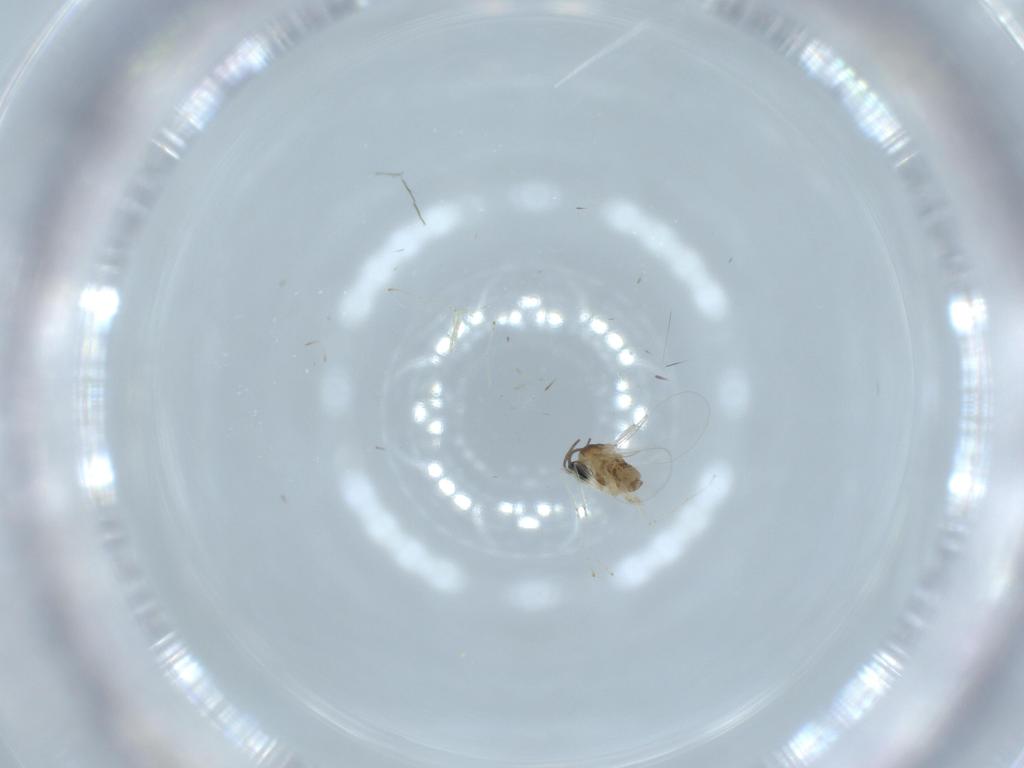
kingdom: Animalia
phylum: Arthropoda
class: Insecta
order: Diptera
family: Cecidomyiidae
